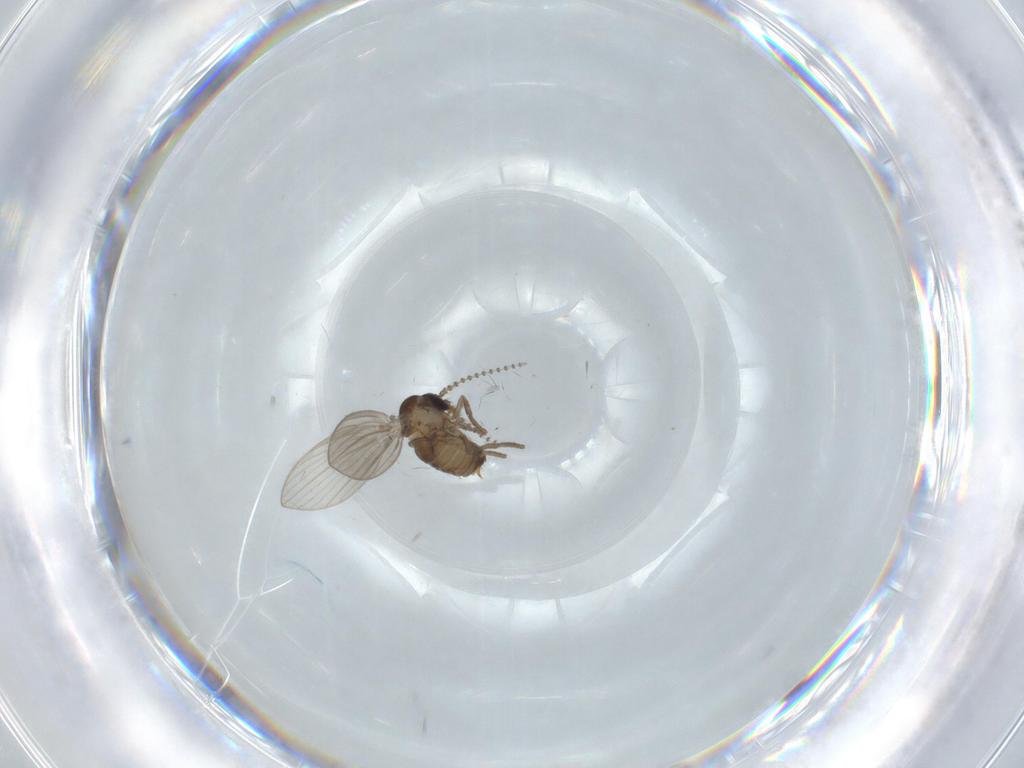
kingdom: Animalia
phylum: Arthropoda
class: Insecta
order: Diptera
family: Psychodidae
